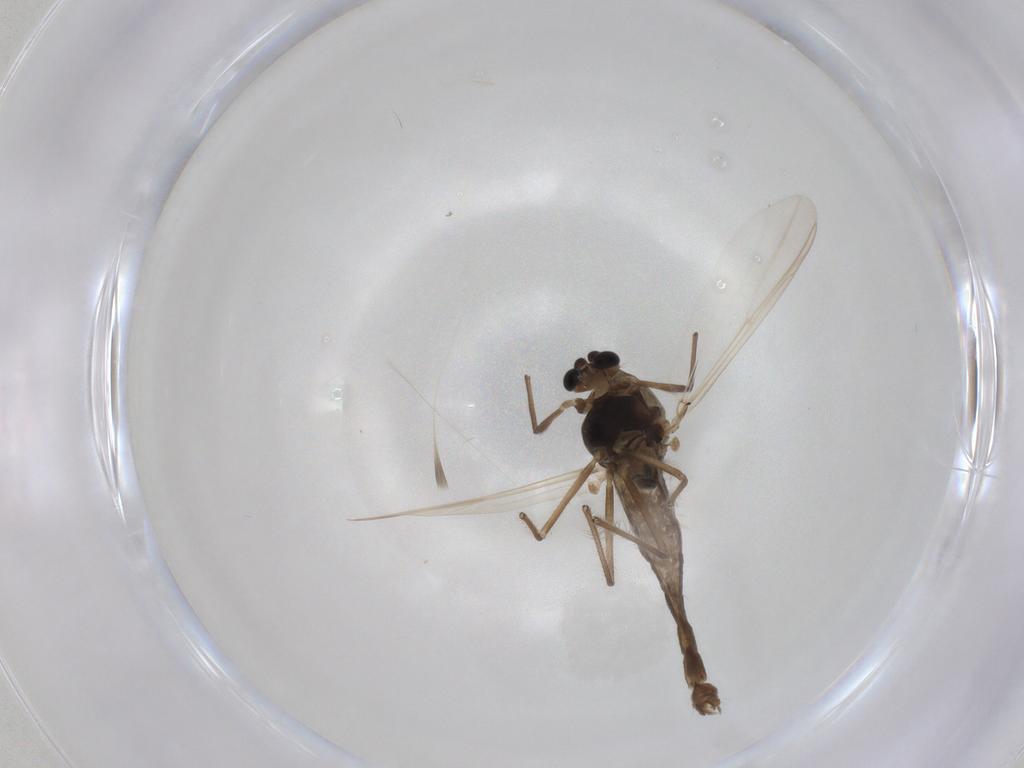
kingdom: Animalia
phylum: Arthropoda
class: Insecta
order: Diptera
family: Chironomidae
